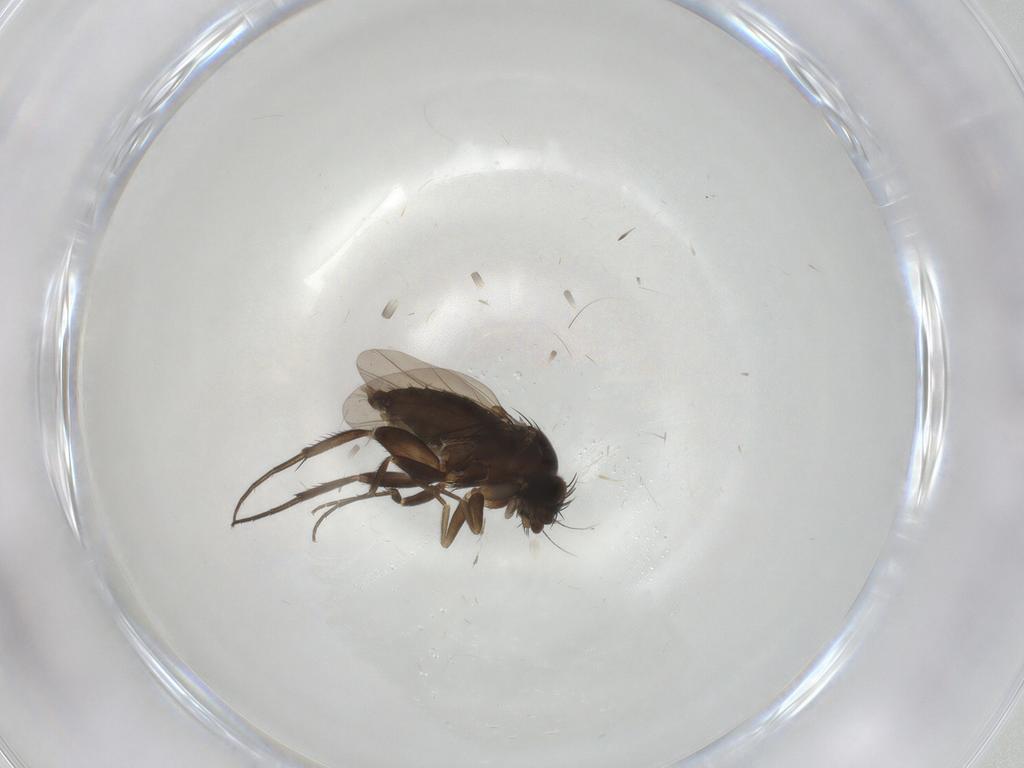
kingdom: Animalia
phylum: Arthropoda
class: Insecta
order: Diptera
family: Phoridae
